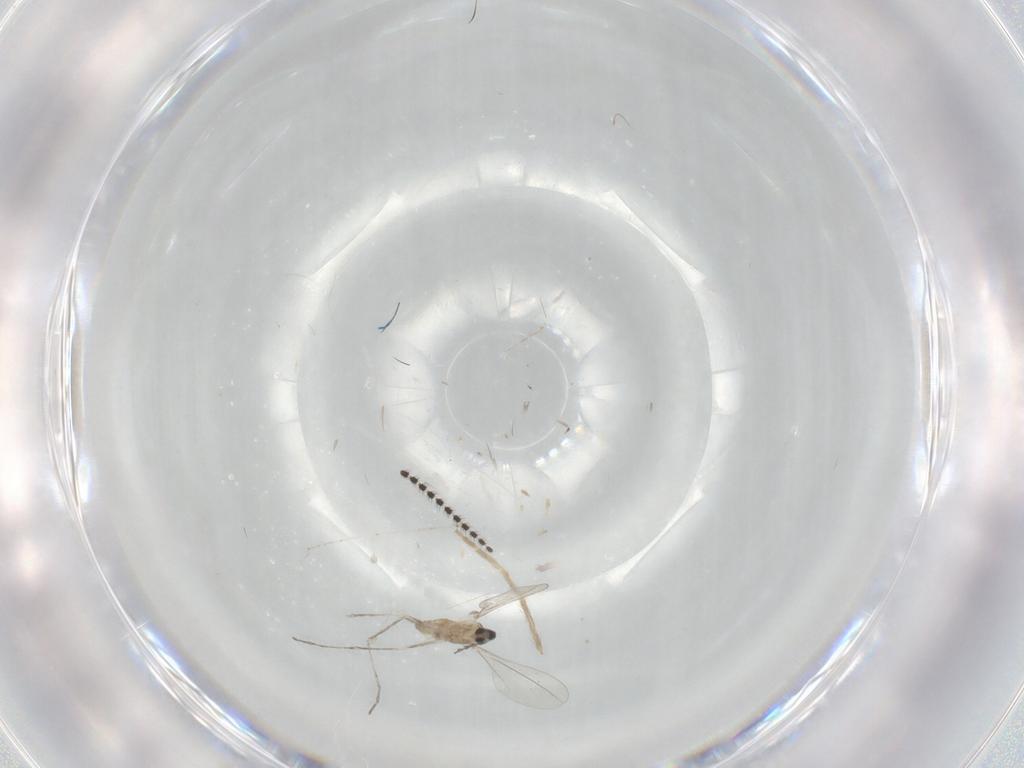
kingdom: Animalia
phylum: Arthropoda
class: Insecta
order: Diptera
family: Cecidomyiidae
